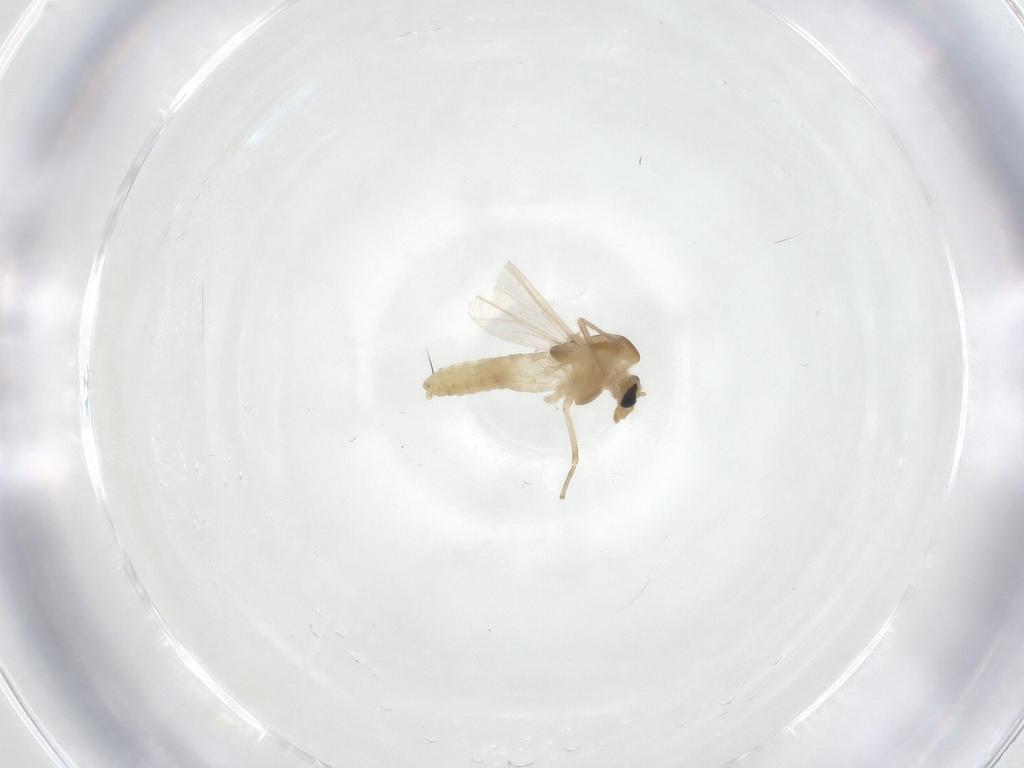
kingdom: Animalia
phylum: Arthropoda
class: Insecta
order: Diptera
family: Chironomidae
